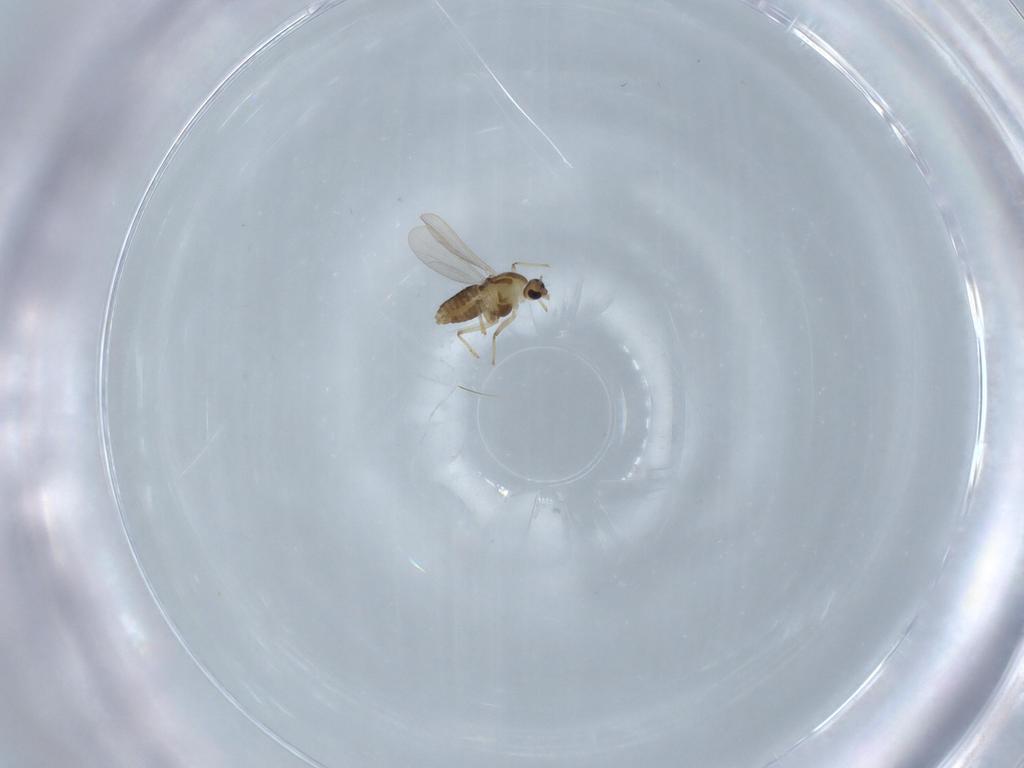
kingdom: Animalia
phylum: Arthropoda
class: Insecta
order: Diptera
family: Chironomidae
